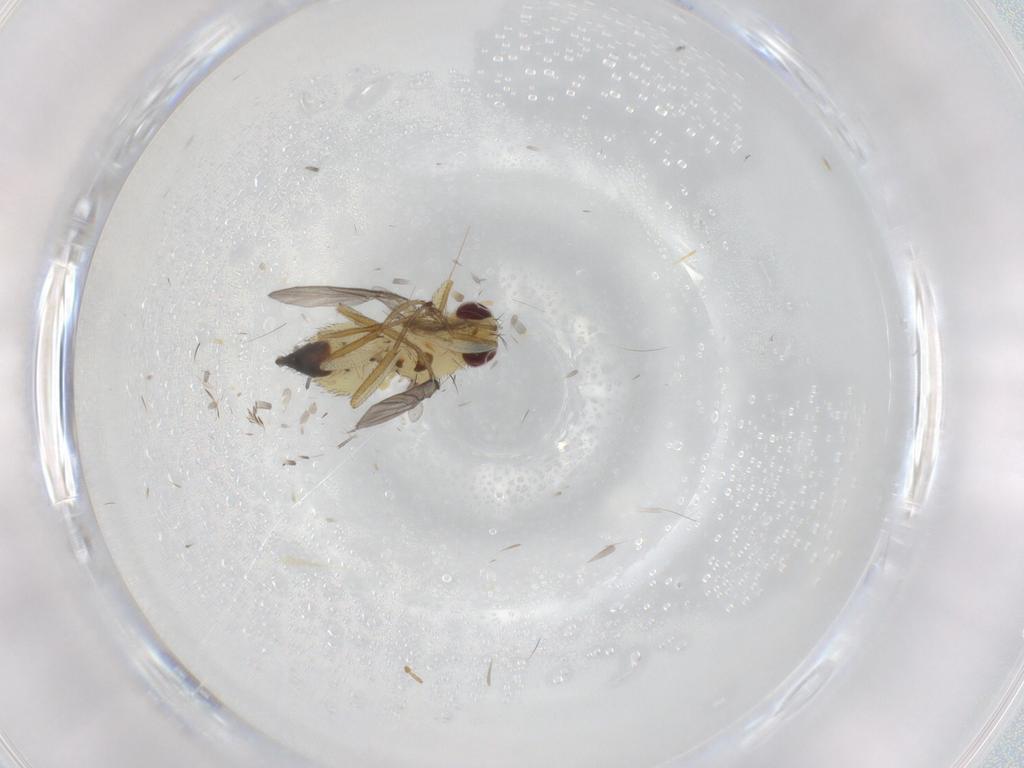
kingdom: Animalia
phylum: Arthropoda
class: Insecta
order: Diptera
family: Agromyzidae
